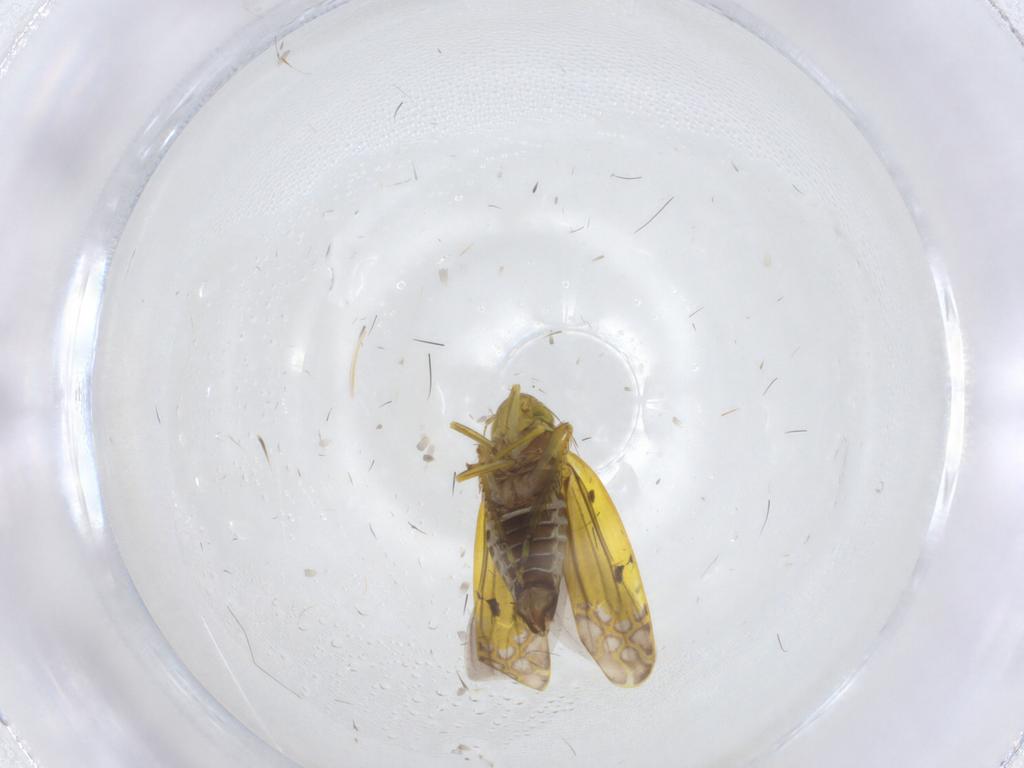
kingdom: Animalia
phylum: Arthropoda
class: Insecta
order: Hemiptera
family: Cicadellidae
